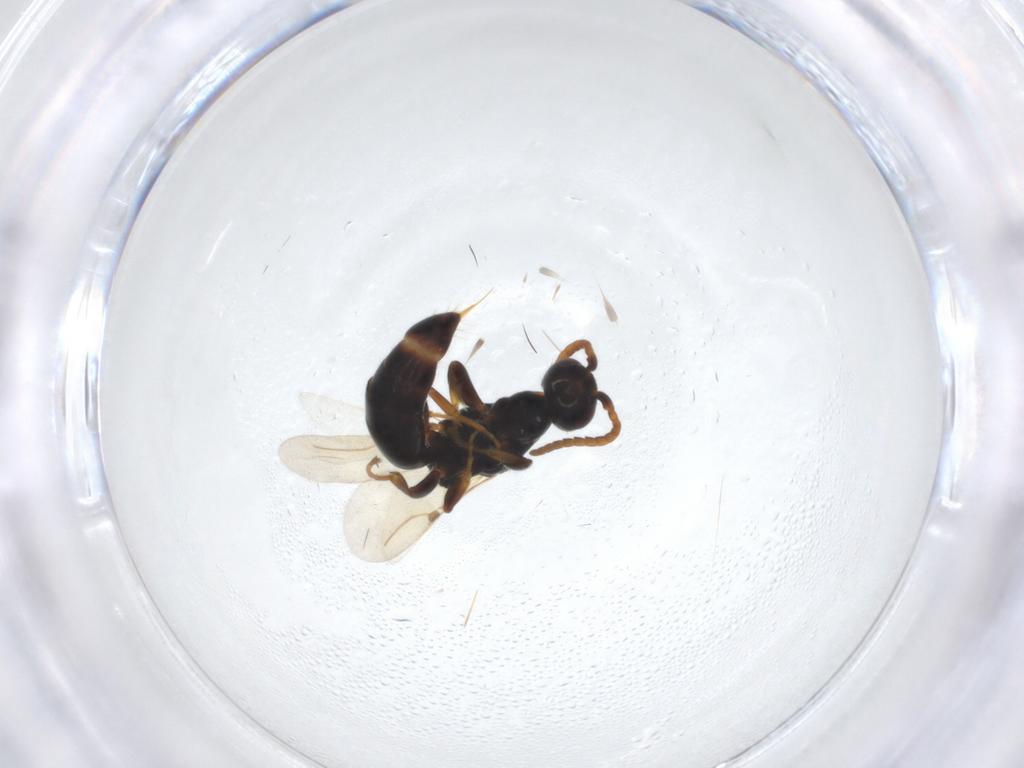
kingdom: Animalia
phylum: Arthropoda
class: Insecta
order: Hymenoptera
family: Bethylidae
